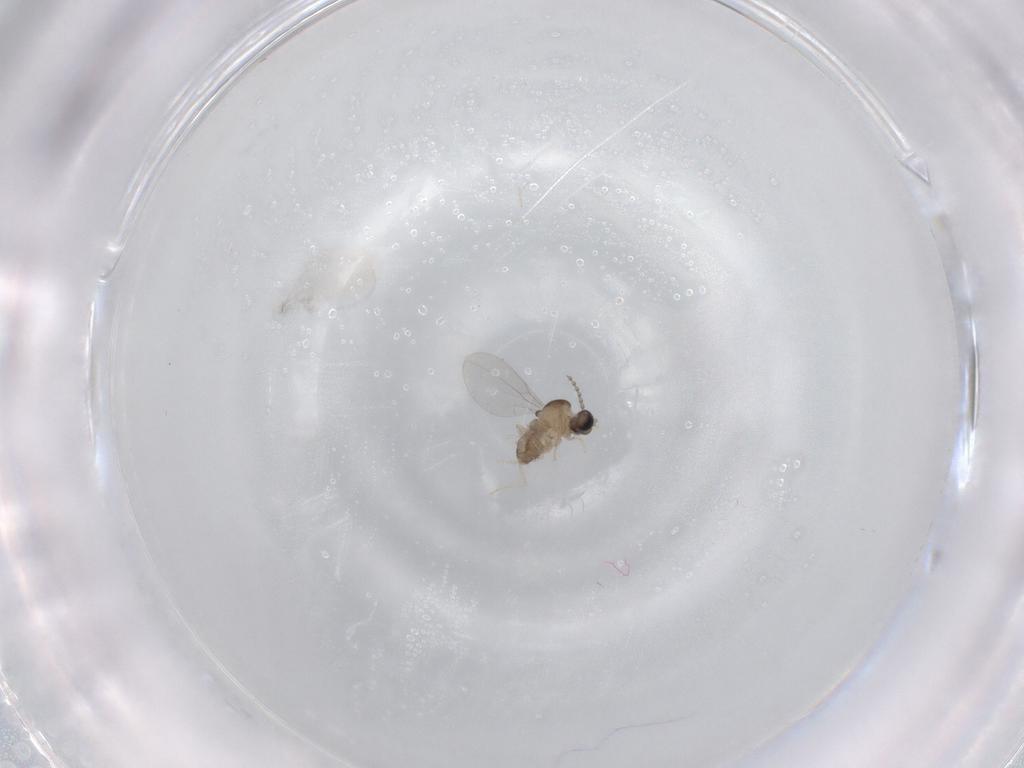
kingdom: Animalia
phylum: Arthropoda
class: Insecta
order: Diptera
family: Cecidomyiidae
